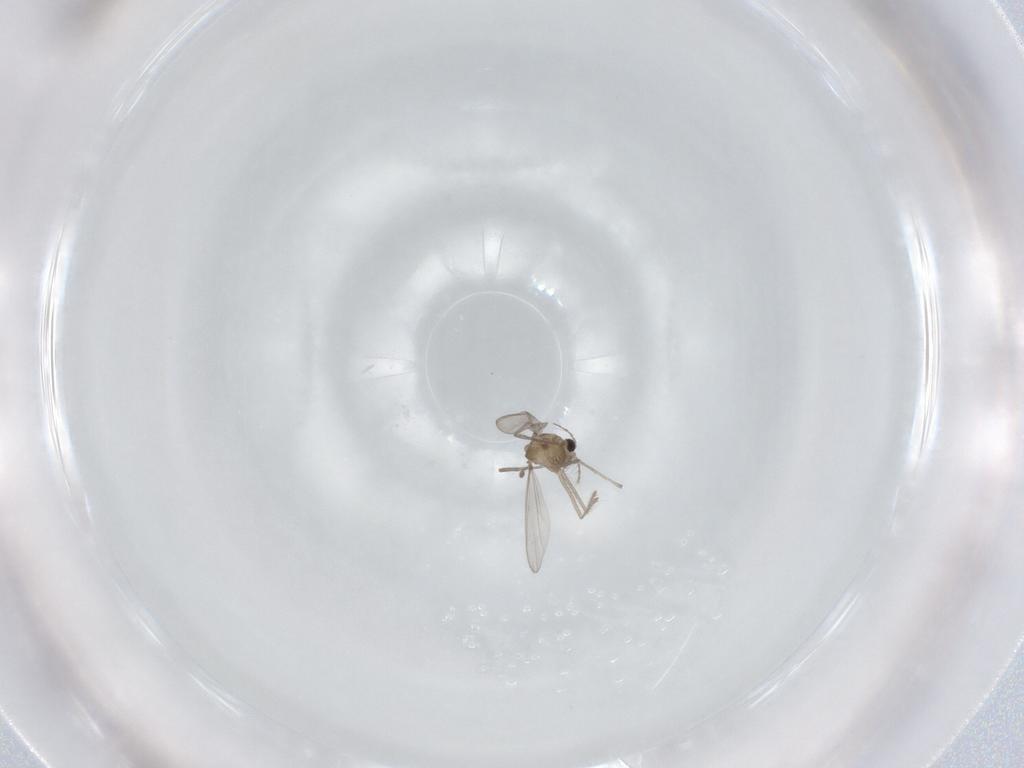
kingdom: Animalia
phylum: Arthropoda
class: Insecta
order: Diptera
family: Cecidomyiidae
